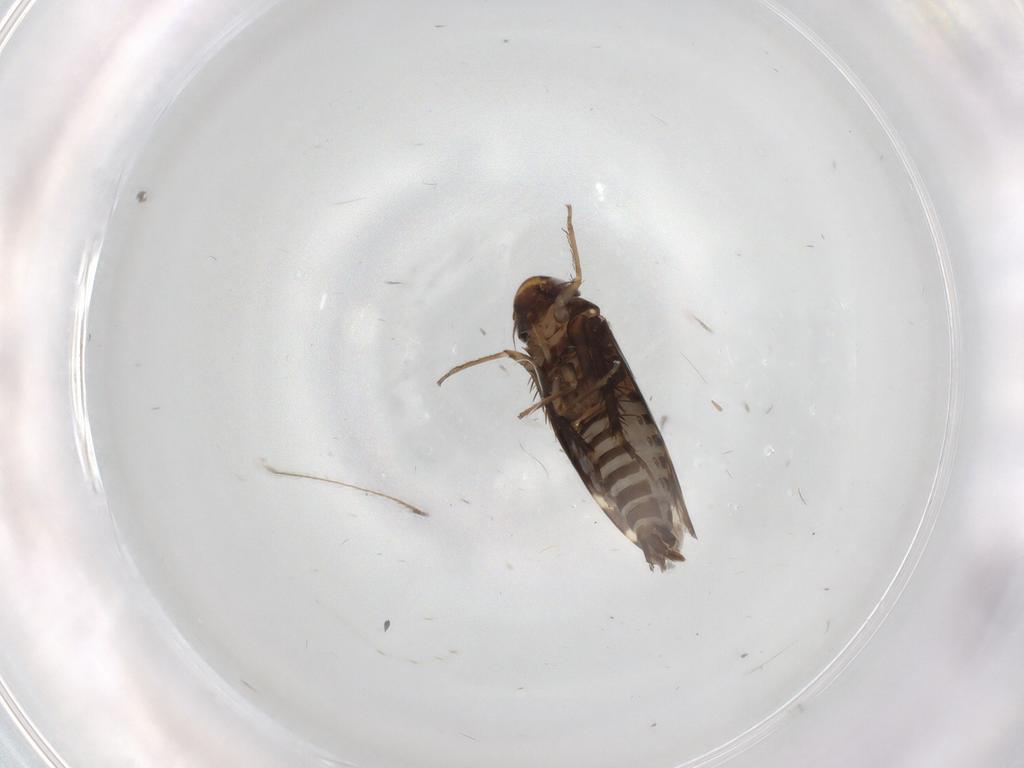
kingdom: Animalia
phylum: Arthropoda
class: Insecta
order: Hemiptera
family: Cicadellidae
